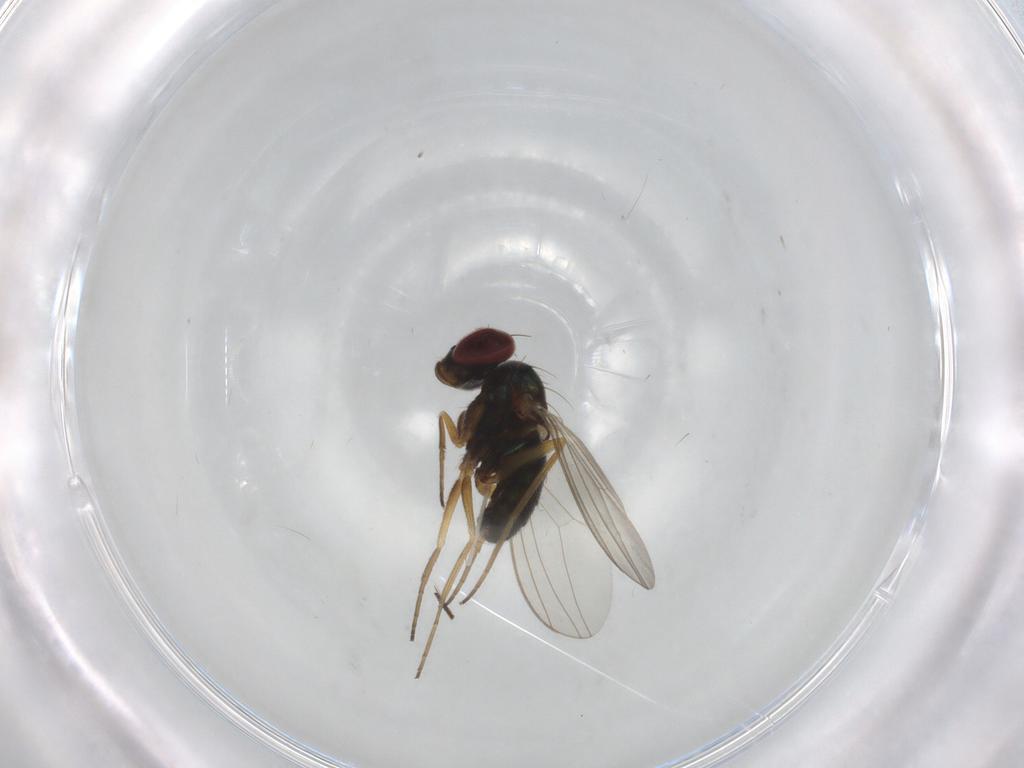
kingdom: Animalia
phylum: Arthropoda
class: Insecta
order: Diptera
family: Dolichopodidae
